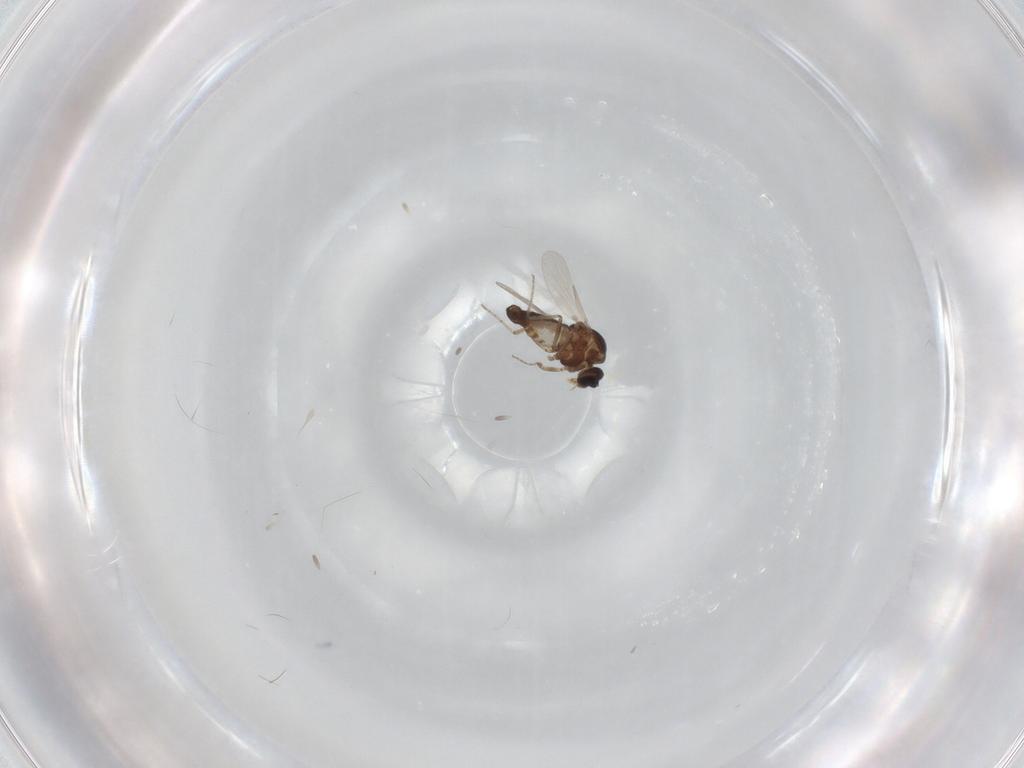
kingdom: Animalia
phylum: Arthropoda
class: Insecta
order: Diptera
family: Ceratopogonidae
